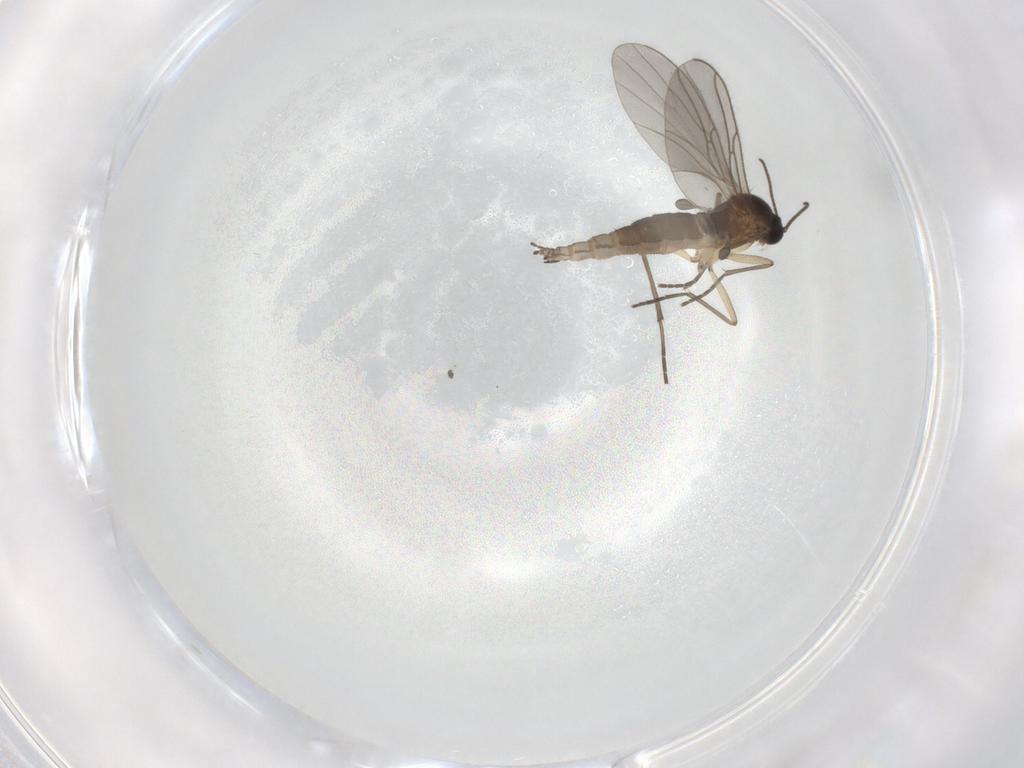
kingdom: Animalia
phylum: Arthropoda
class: Insecta
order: Diptera
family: Sciaridae
